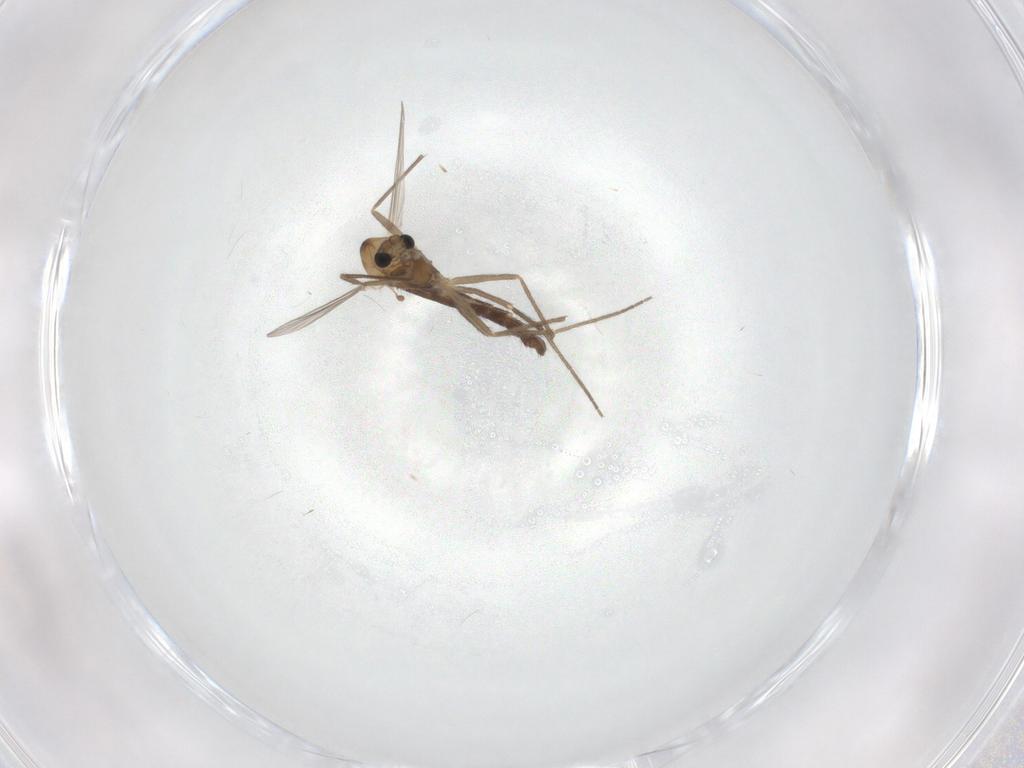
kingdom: Animalia
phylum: Arthropoda
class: Insecta
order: Diptera
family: Chironomidae
